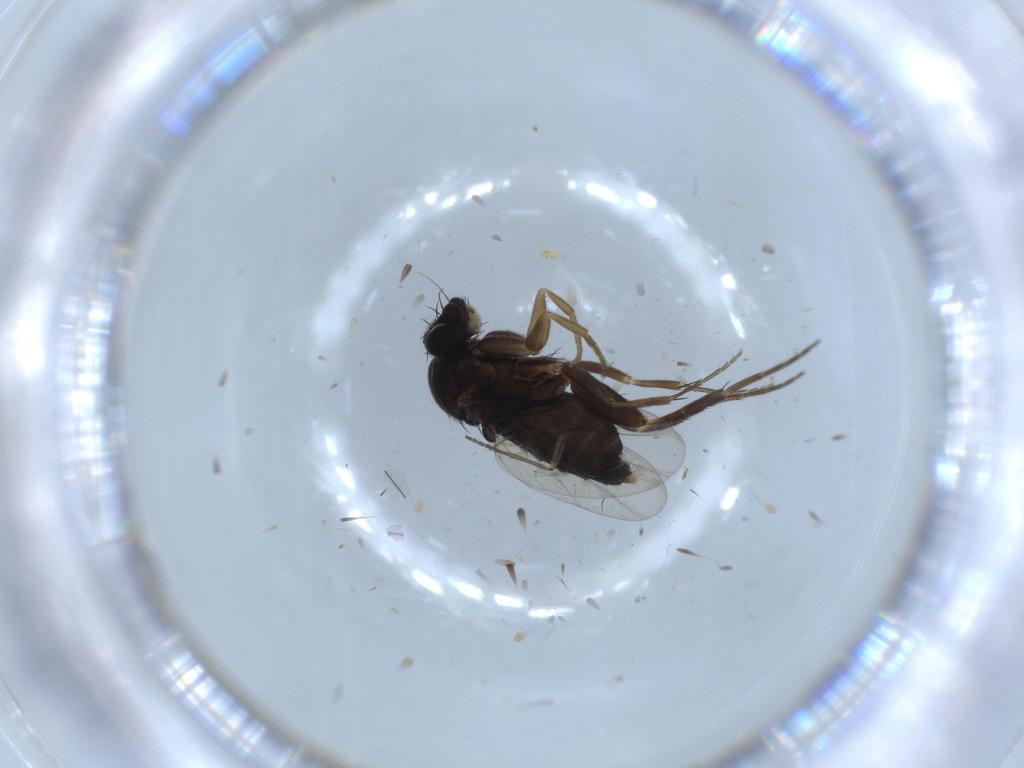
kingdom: Animalia
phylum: Arthropoda
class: Insecta
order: Diptera
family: Phoridae
